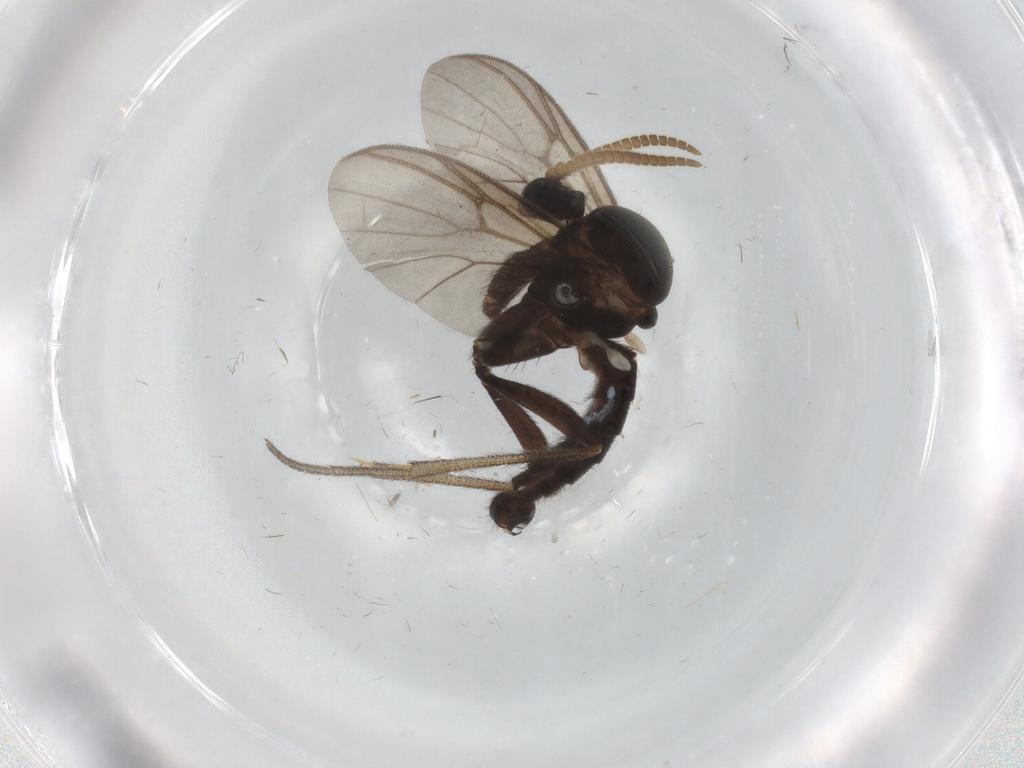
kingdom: Animalia
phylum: Arthropoda
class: Insecta
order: Diptera
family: Mycetophilidae
